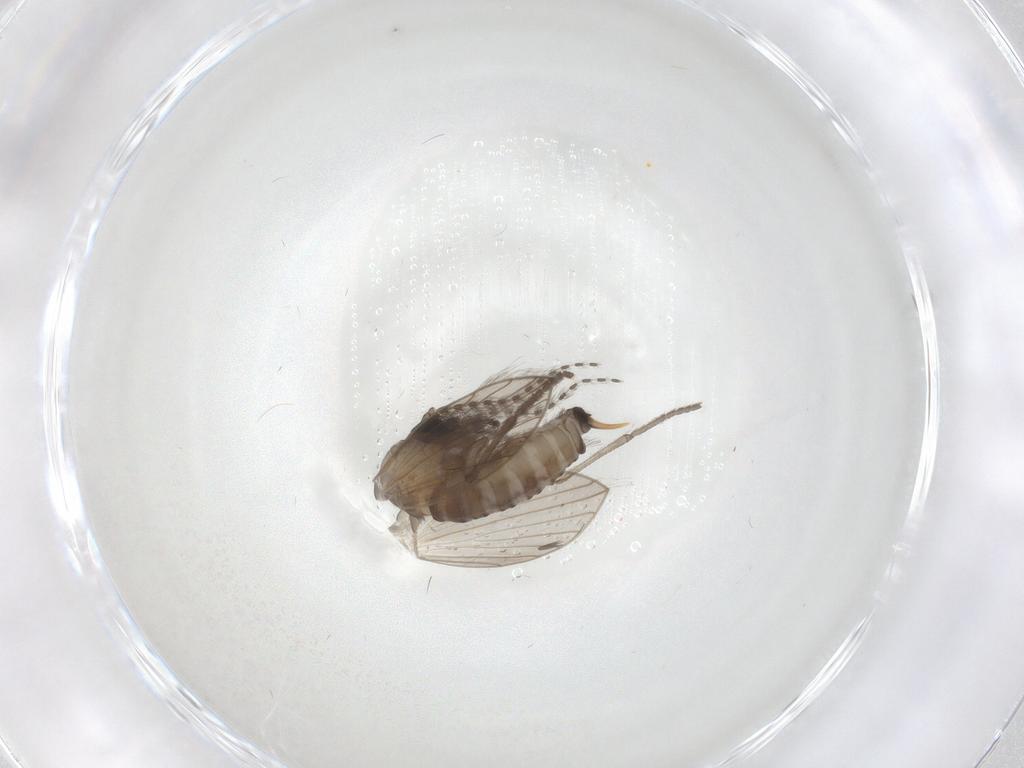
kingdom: Animalia
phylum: Arthropoda
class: Insecta
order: Diptera
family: Psychodidae
